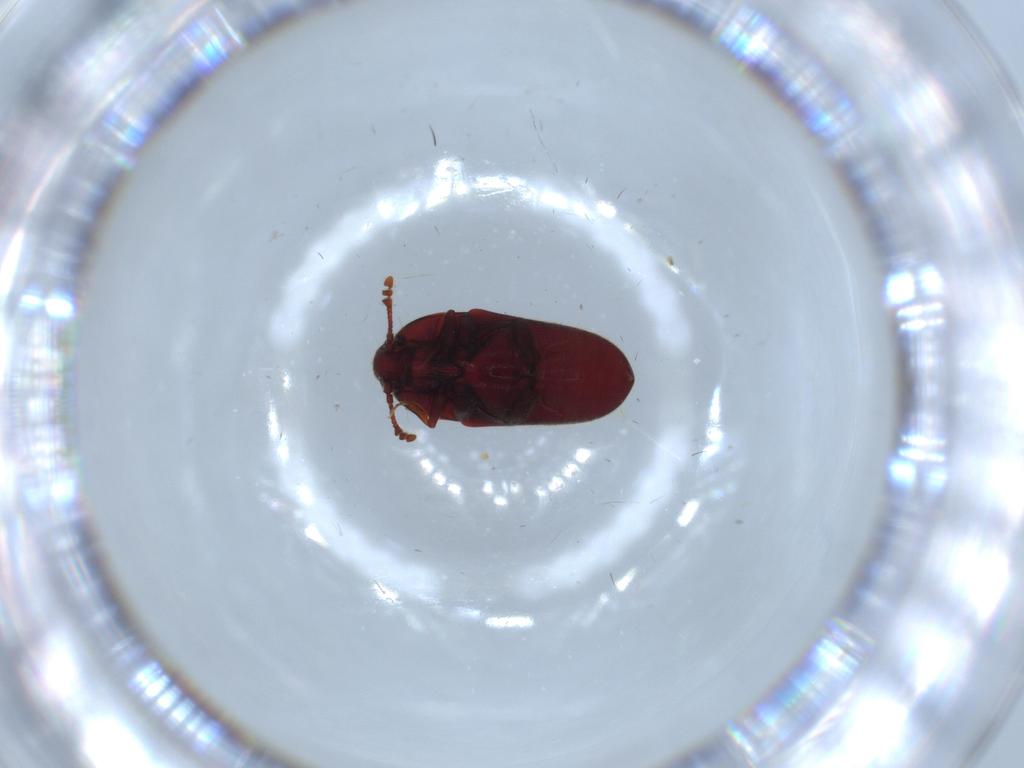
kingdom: Animalia
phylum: Arthropoda
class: Insecta
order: Coleoptera
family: Throscidae
